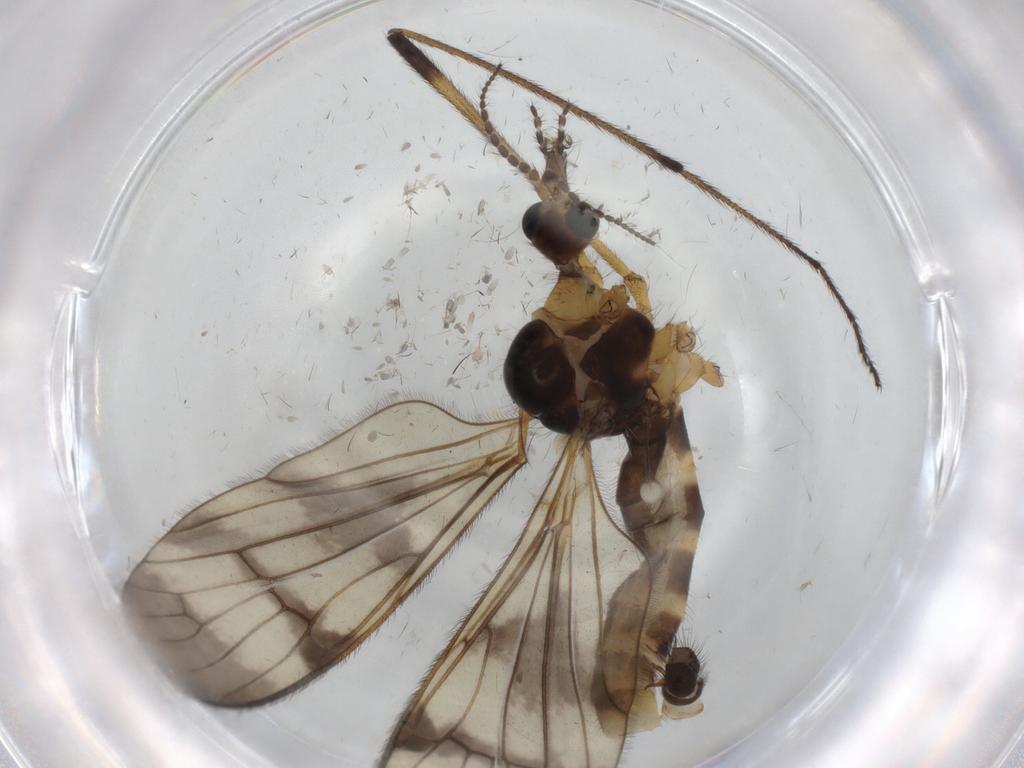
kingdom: Animalia
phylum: Arthropoda
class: Insecta
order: Diptera
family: Limoniidae
